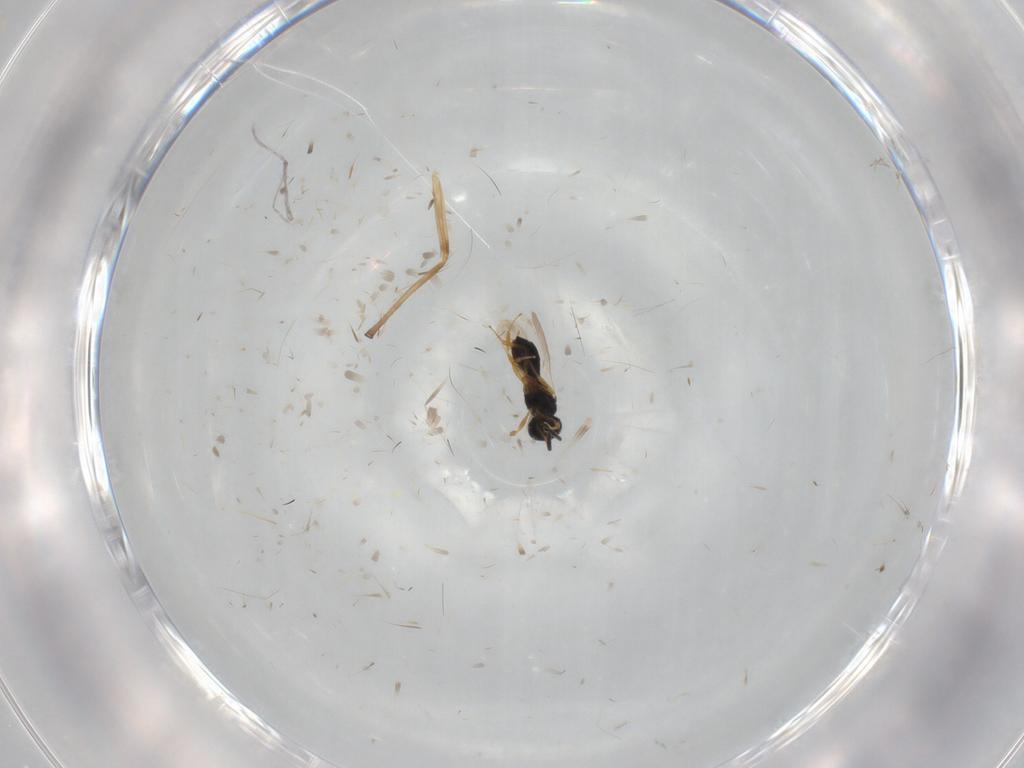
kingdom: Animalia
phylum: Arthropoda
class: Insecta
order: Hymenoptera
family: Scelionidae
